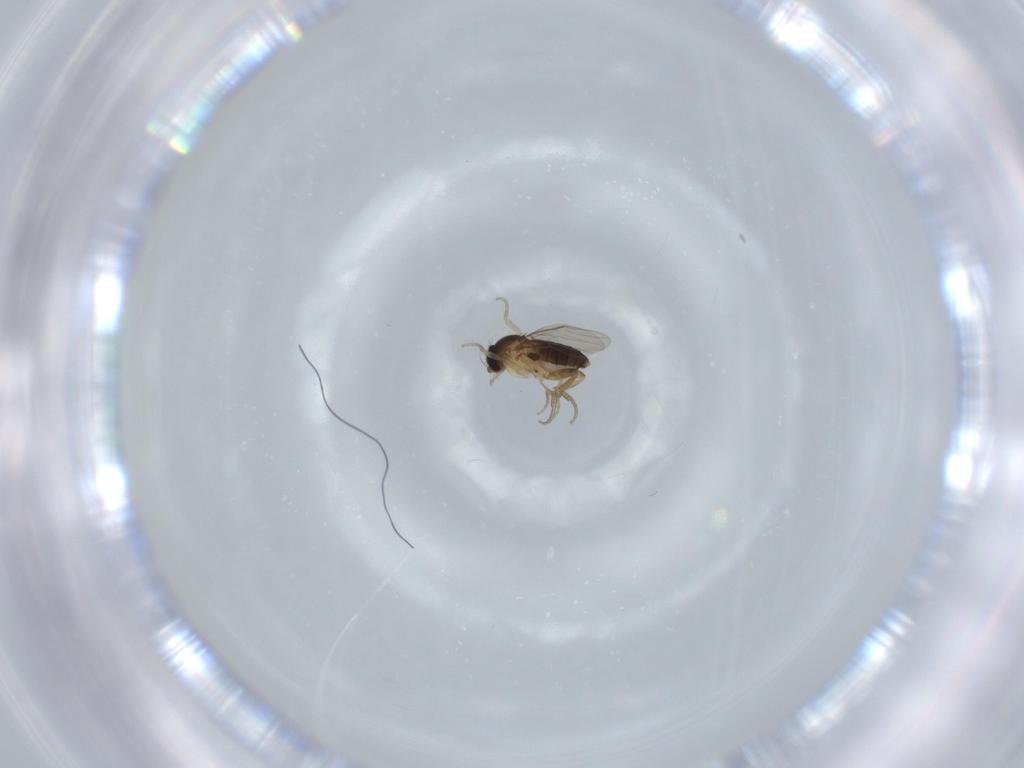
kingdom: Animalia
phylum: Arthropoda
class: Insecta
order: Diptera
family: Phoridae
